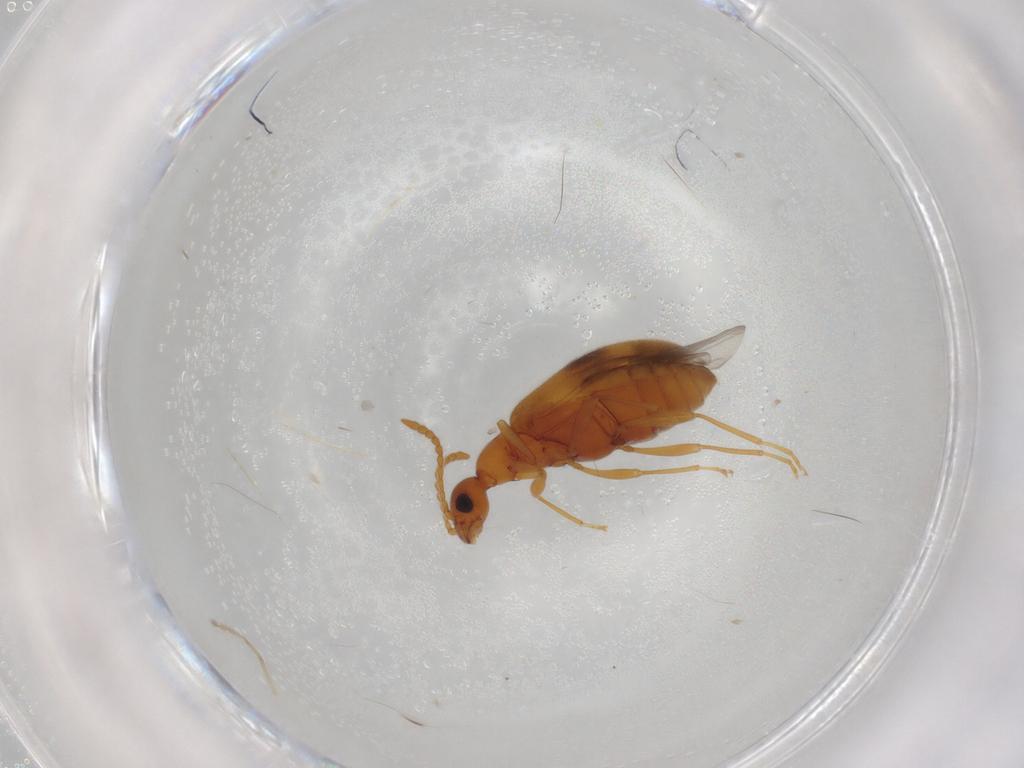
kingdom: Animalia
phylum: Arthropoda
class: Insecta
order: Coleoptera
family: Anthicidae
